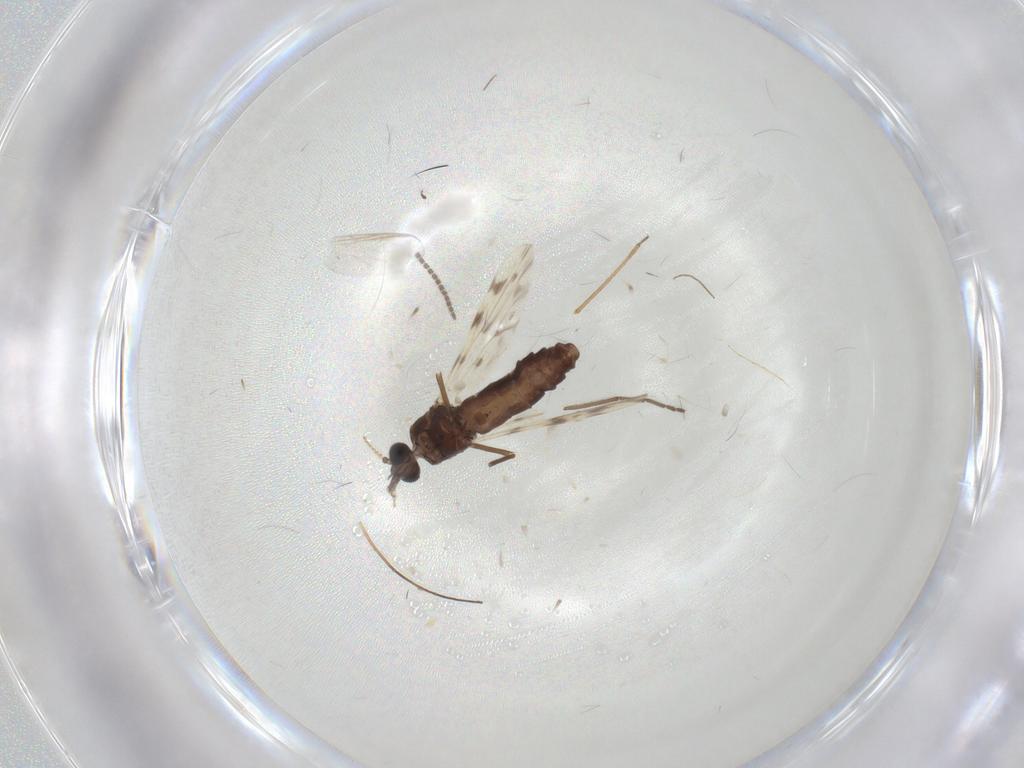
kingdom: Animalia
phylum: Arthropoda
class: Insecta
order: Diptera
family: Sciaridae
